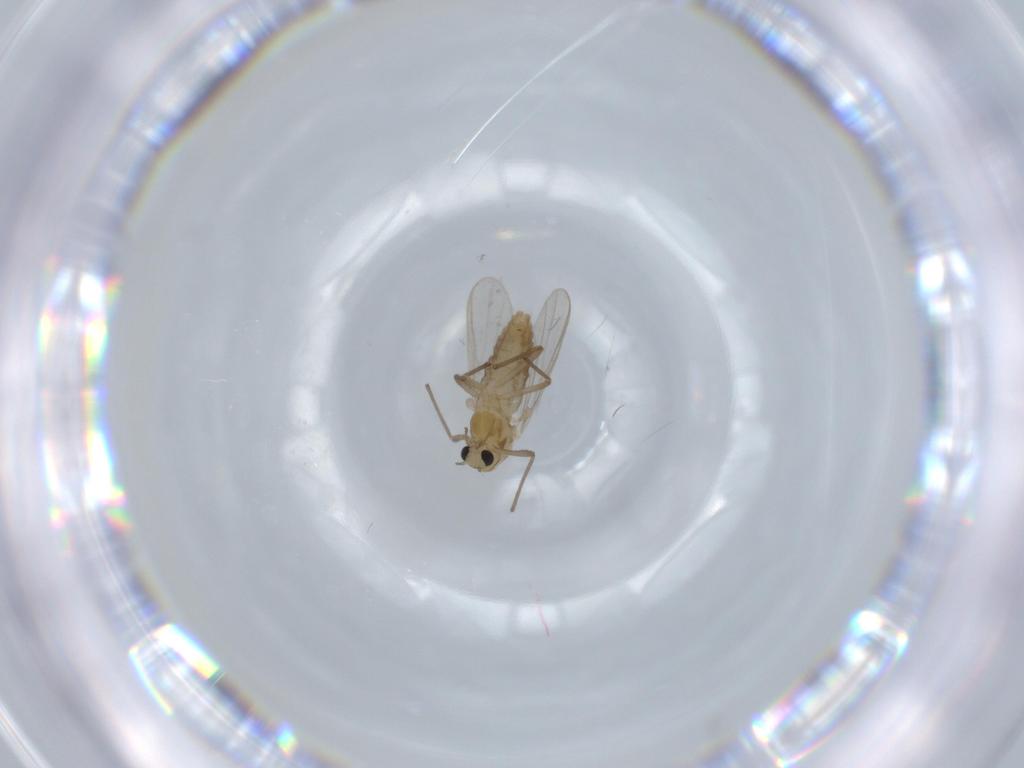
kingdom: Animalia
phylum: Arthropoda
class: Insecta
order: Diptera
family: Chironomidae
